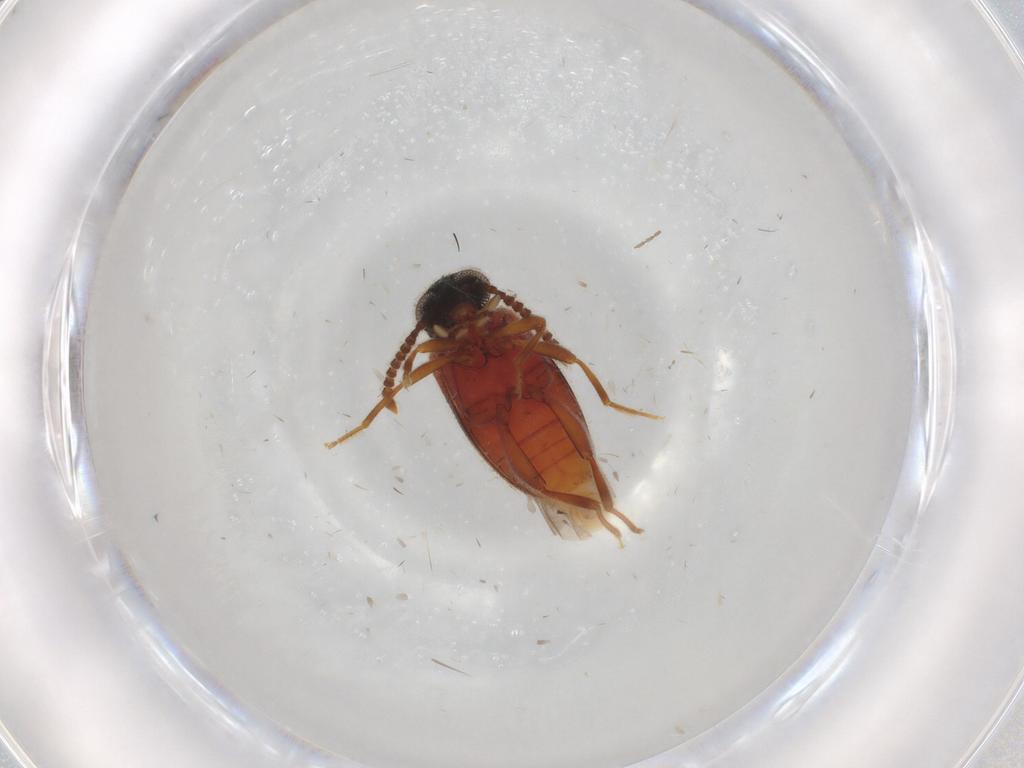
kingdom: Animalia
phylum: Arthropoda
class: Insecta
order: Coleoptera
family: Aderidae
